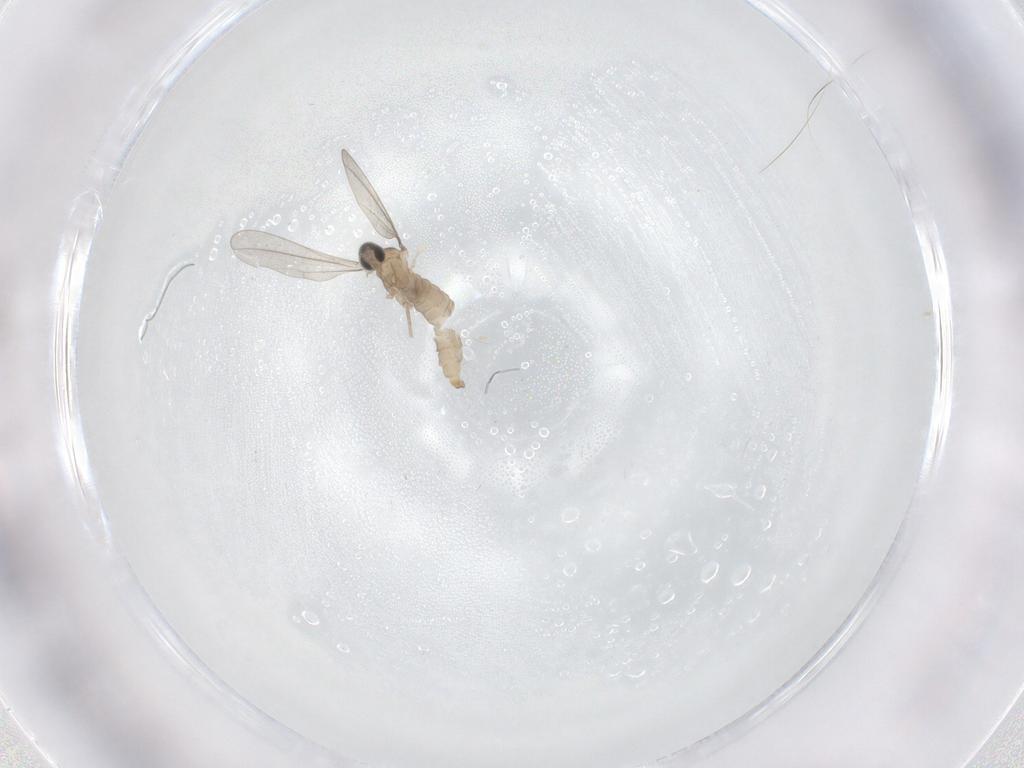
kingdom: Animalia
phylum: Arthropoda
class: Insecta
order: Diptera
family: Cecidomyiidae
